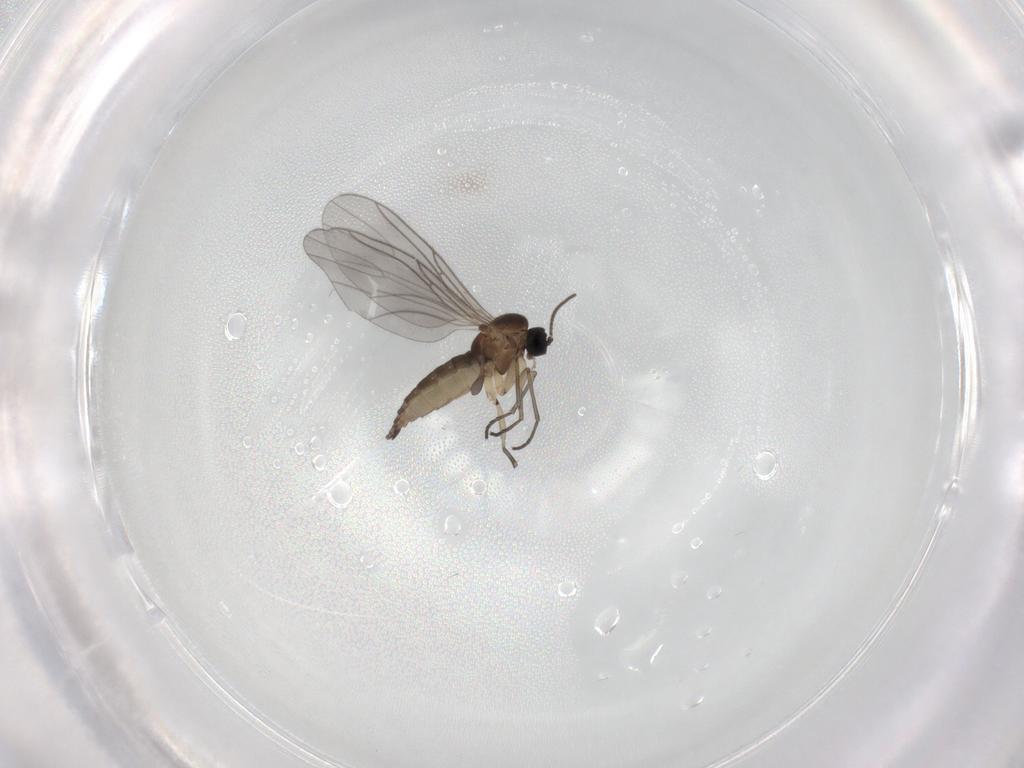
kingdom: Animalia
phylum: Arthropoda
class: Insecta
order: Diptera
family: Sciaridae
